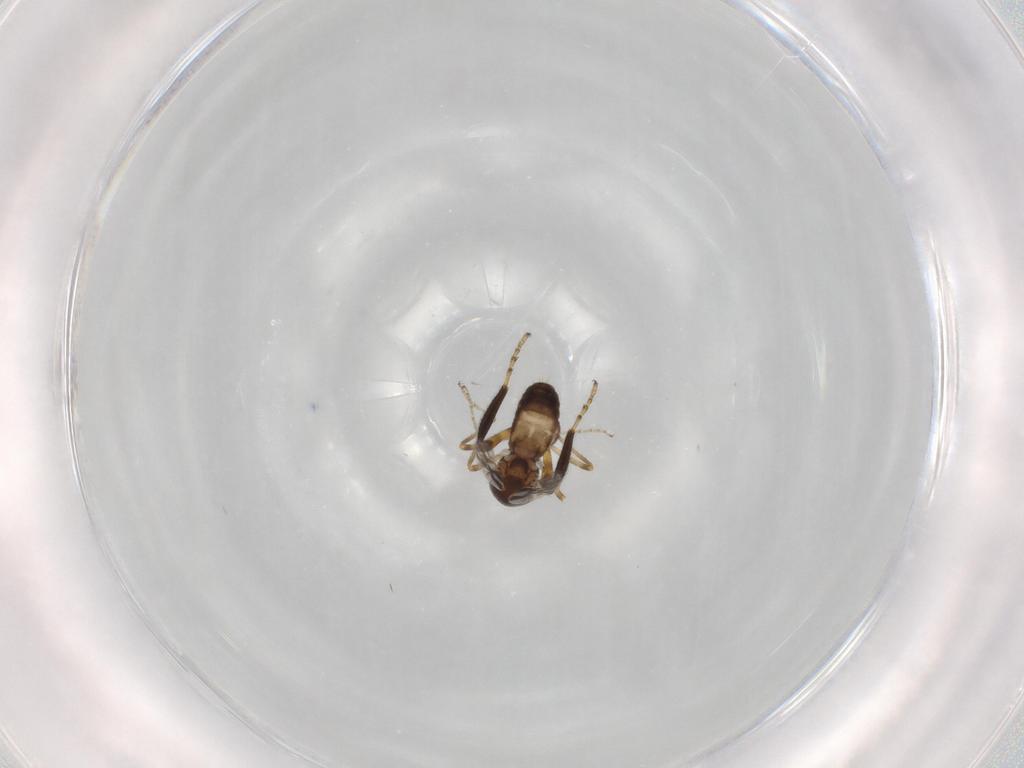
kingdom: Animalia
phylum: Arthropoda
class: Insecta
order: Diptera
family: Ceratopogonidae
